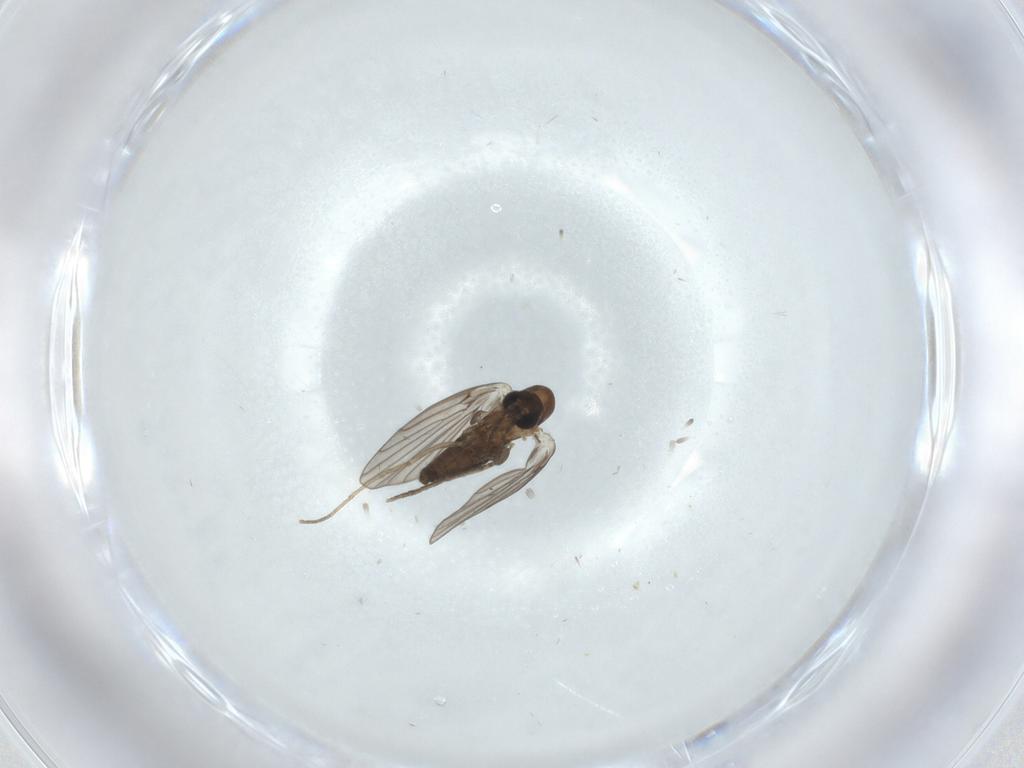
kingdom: Animalia
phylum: Arthropoda
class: Insecta
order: Diptera
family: Psychodidae
